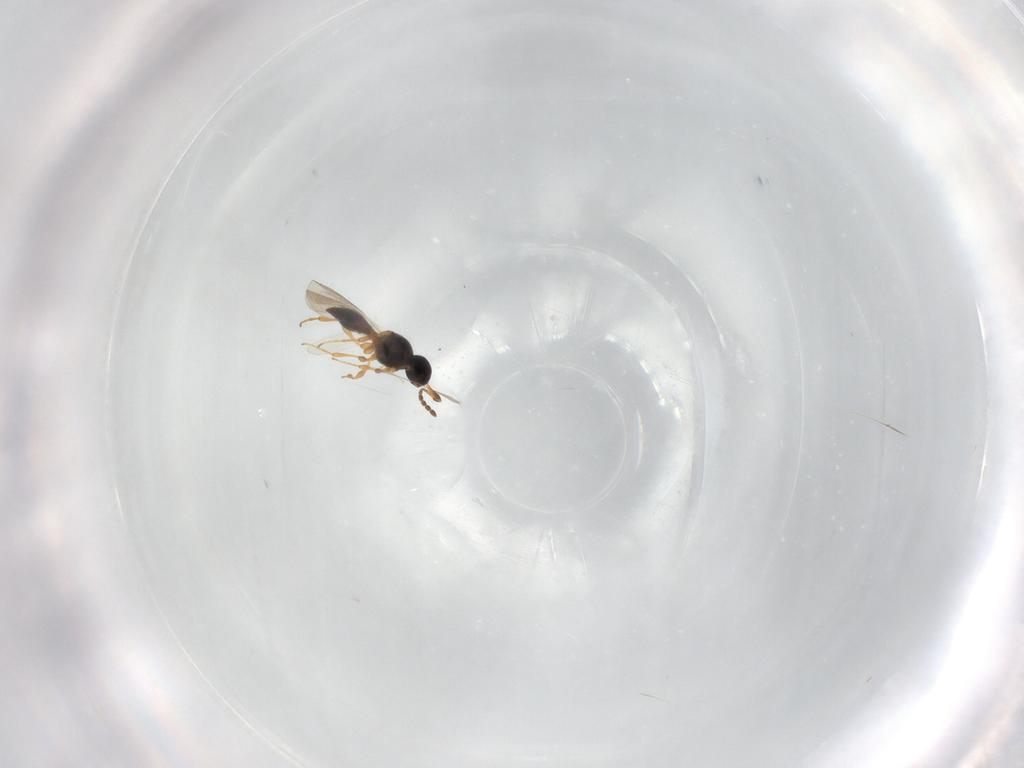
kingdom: Animalia
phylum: Arthropoda
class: Insecta
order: Hymenoptera
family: Platygastridae
